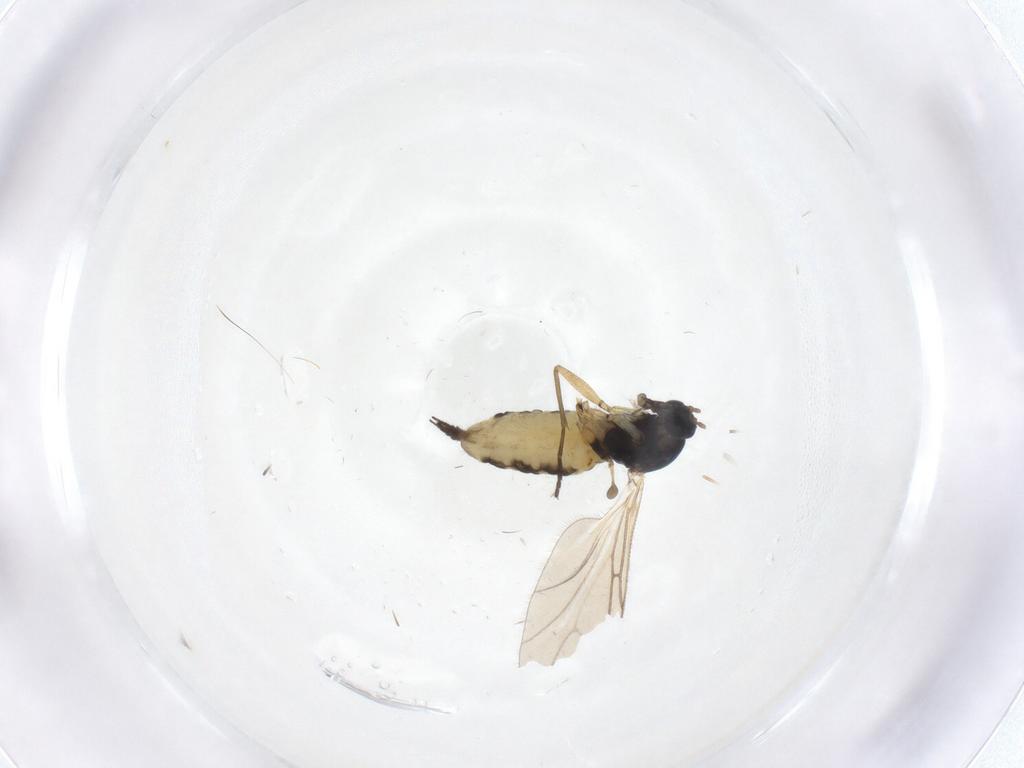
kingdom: Animalia
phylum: Arthropoda
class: Insecta
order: Diptera
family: Sciaridae
